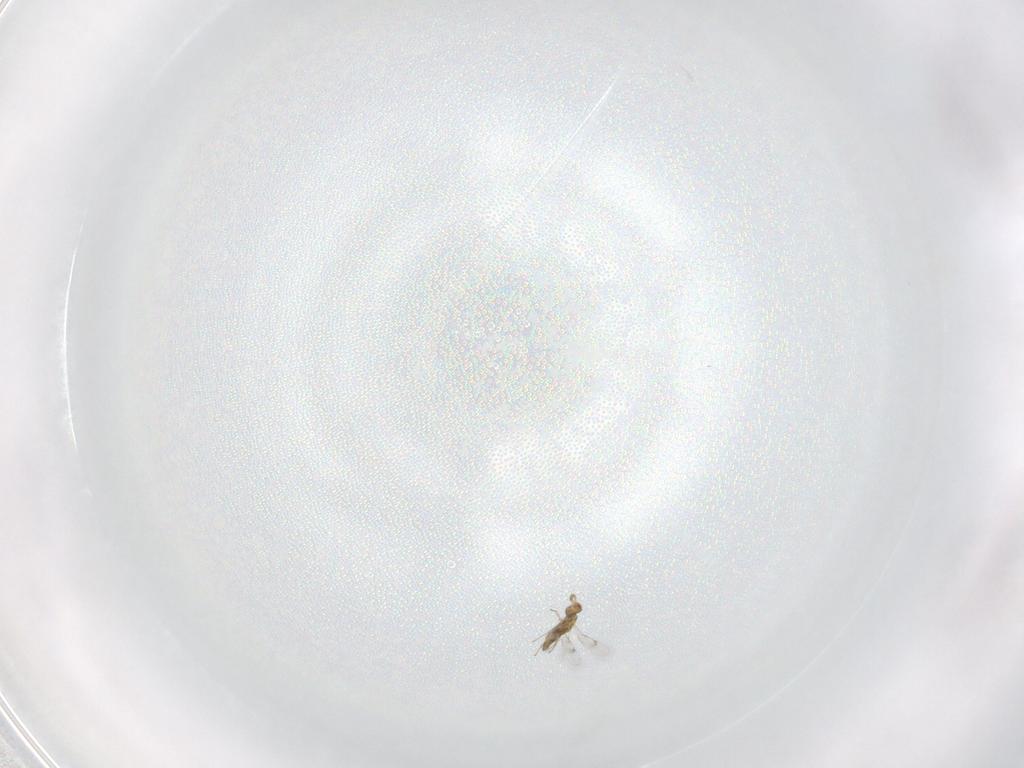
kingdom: Animalia
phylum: Arthropoda
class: Insecta
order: Hymenoptera
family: Eulophidae
